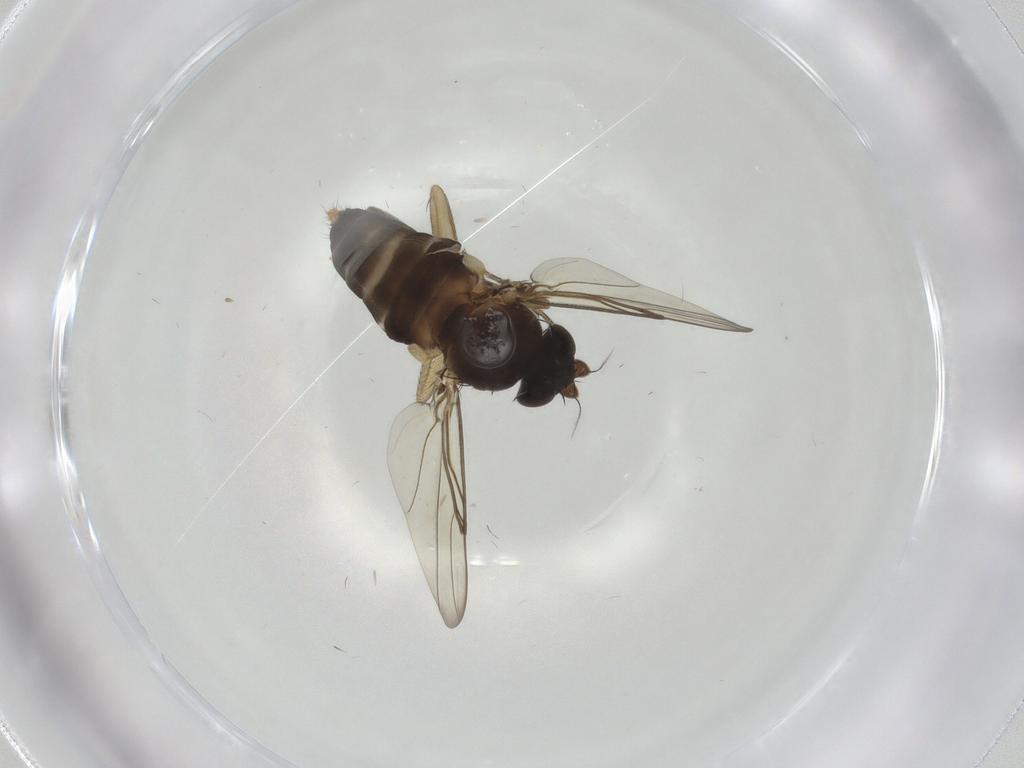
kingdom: Animalia
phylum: Arthropoda
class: Insecta
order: Diptera
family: Phoridae
